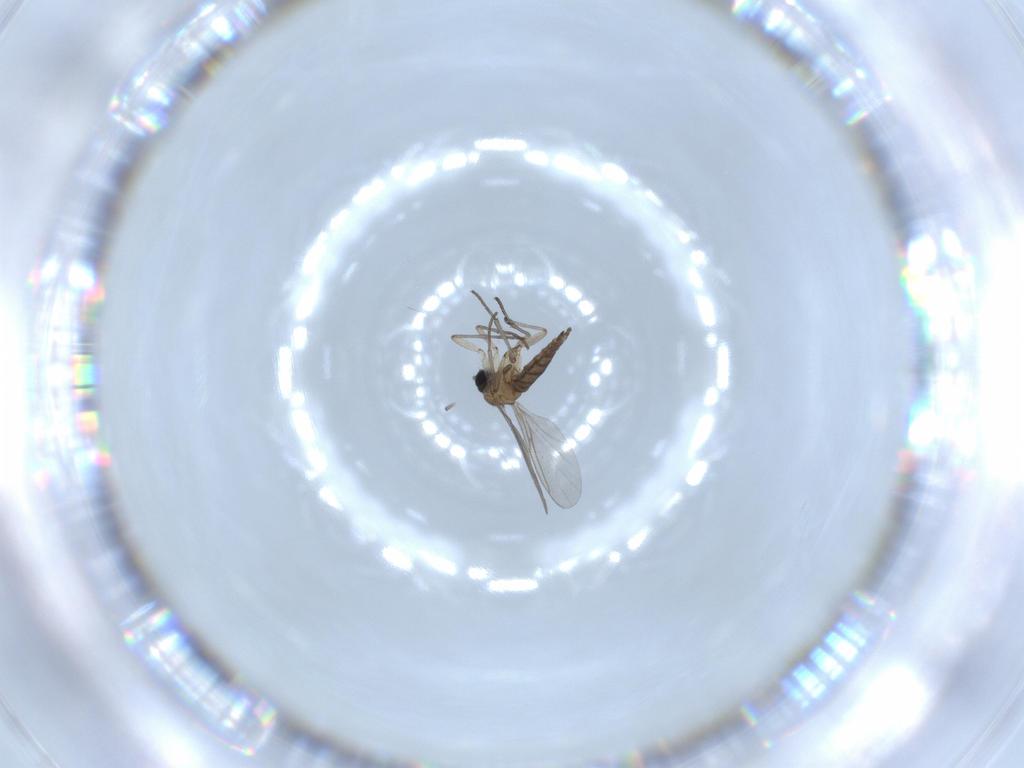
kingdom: Animalia
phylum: Arthropoda
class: Insecta
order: Diptera
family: Sciaridae
